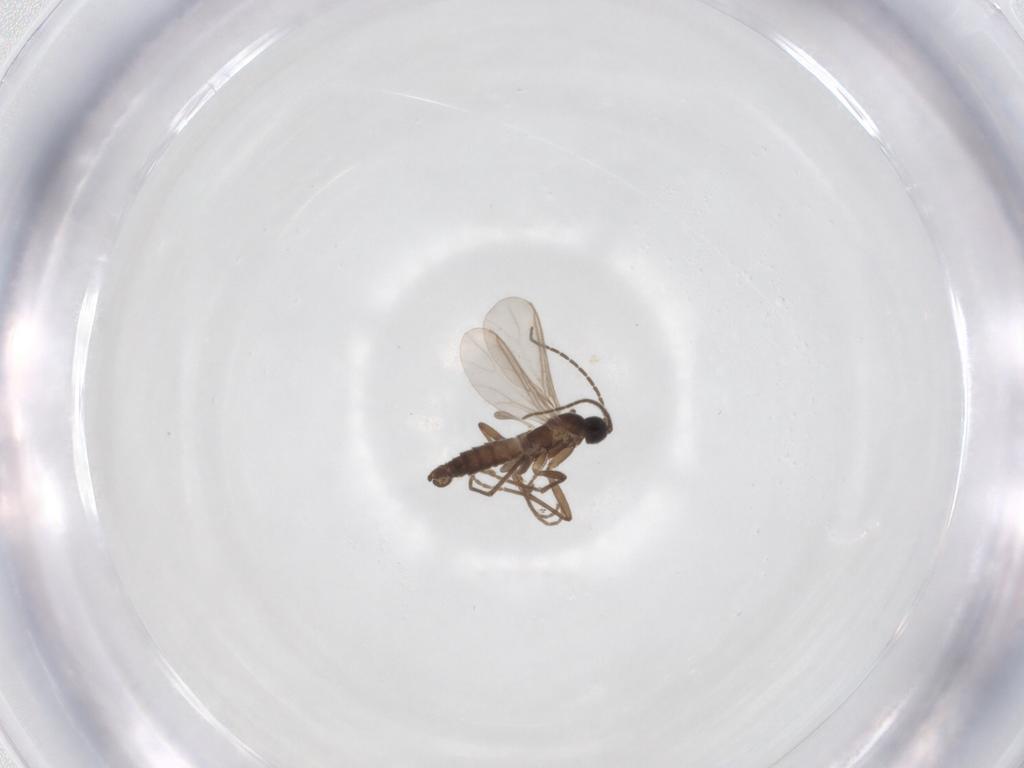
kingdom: Animalia
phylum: Arthropoda
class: Insecta
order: Diptera
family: Agromyzidae
